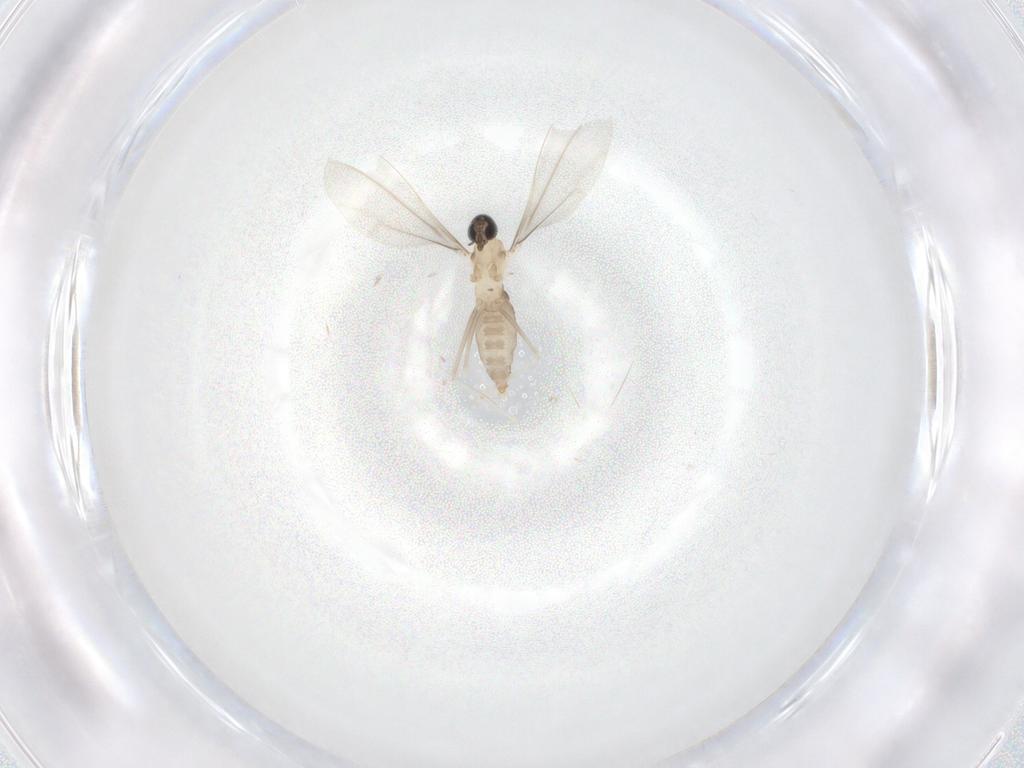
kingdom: Animalia
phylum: Arthropoda
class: Insecta
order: Diptera
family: Cecidomyiidae
